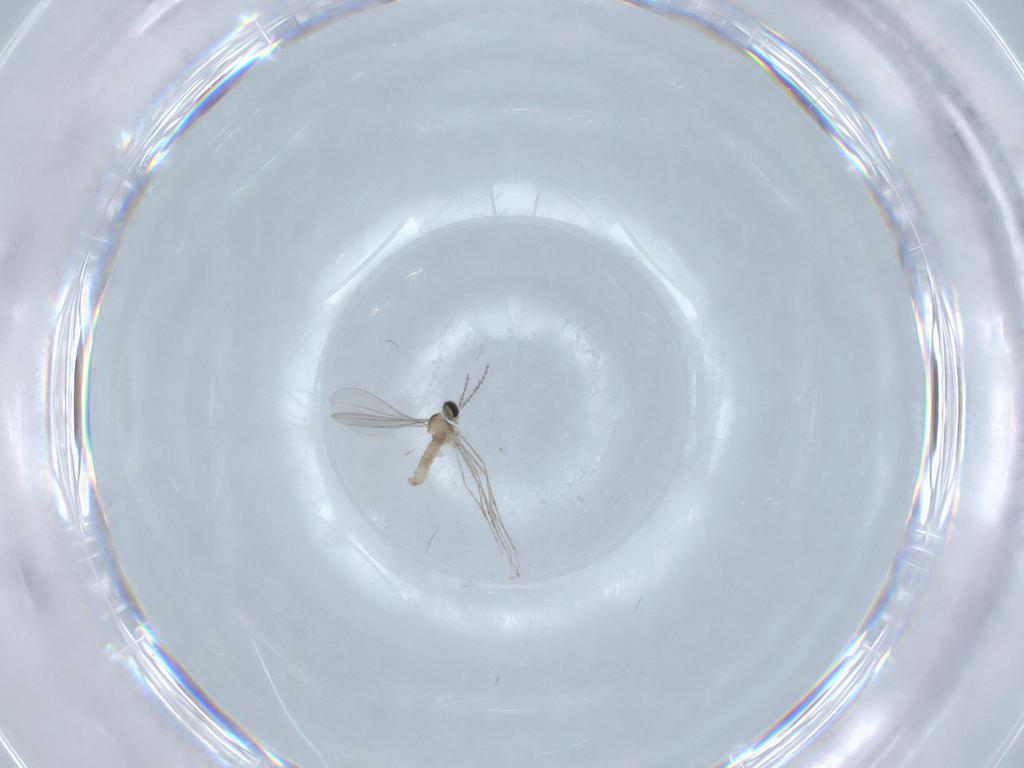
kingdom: Animalia
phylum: Arthropoda
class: Insecta
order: Diptera
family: Cecidomyiidae
